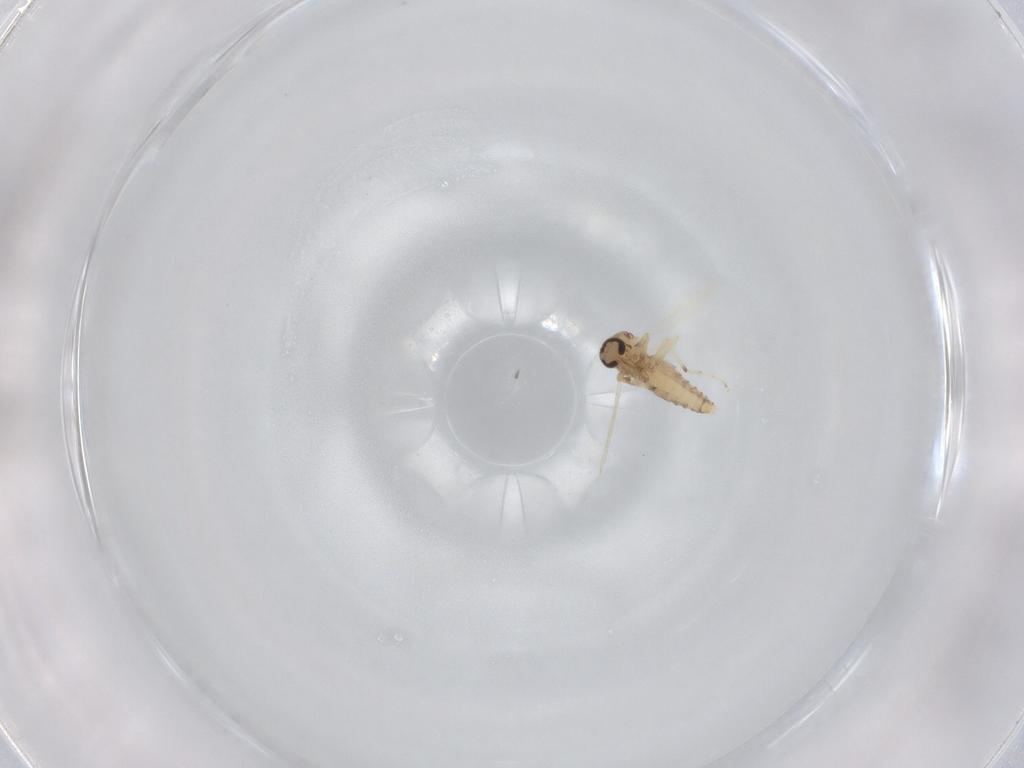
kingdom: Animalia
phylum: Arthropoda
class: Insecta
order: Diptera
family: Ceratopogonidae
